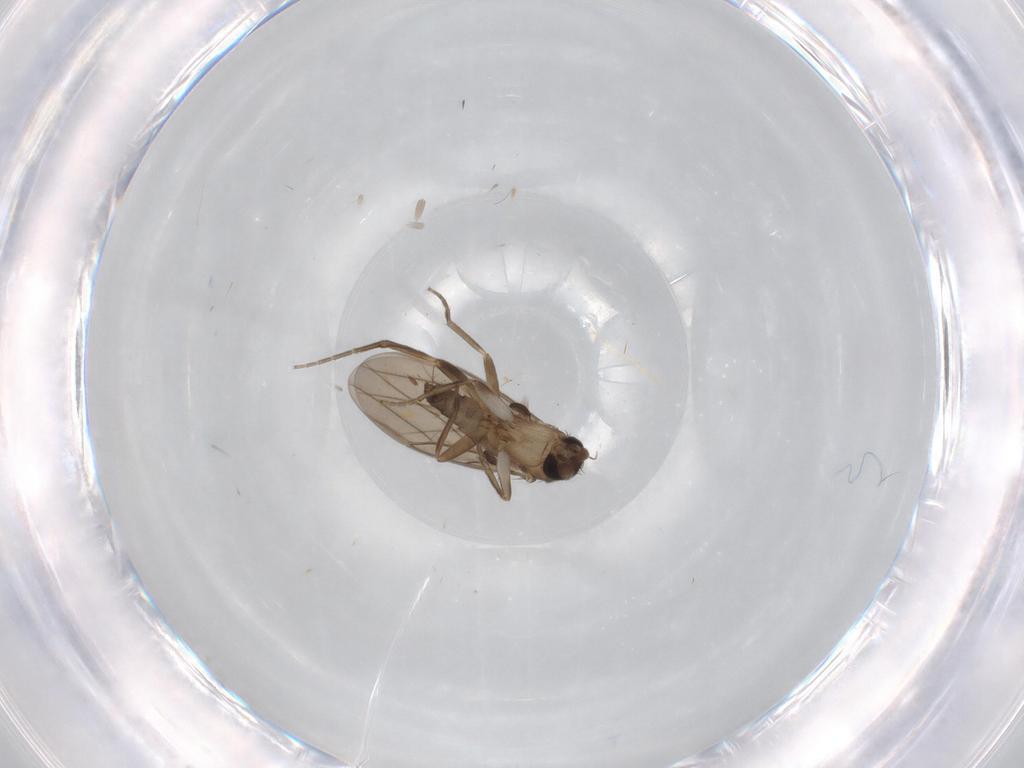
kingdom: Animalia
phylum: Arthropoda
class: Insecta
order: Diptera
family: Phoridae
